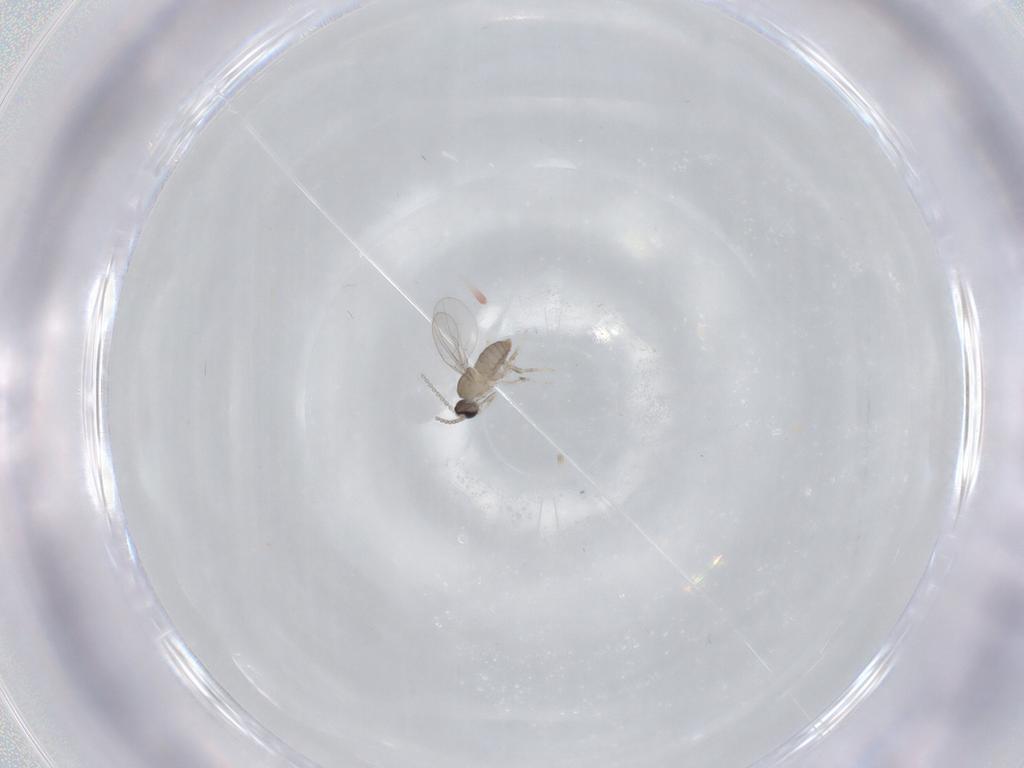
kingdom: Animalia
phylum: Arthropoda
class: Insecta
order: Diptera
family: Cecidomyiidae
